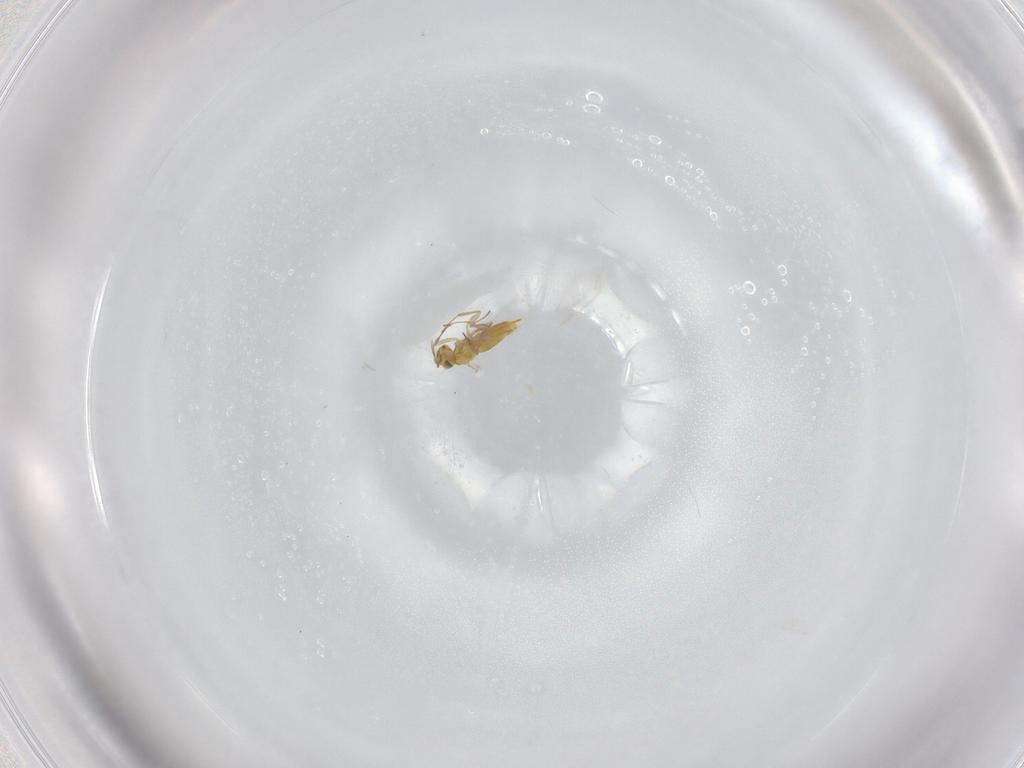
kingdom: Animalia
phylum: Arthropoda
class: Insecta
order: Hymenoptera
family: Aphelinidae
